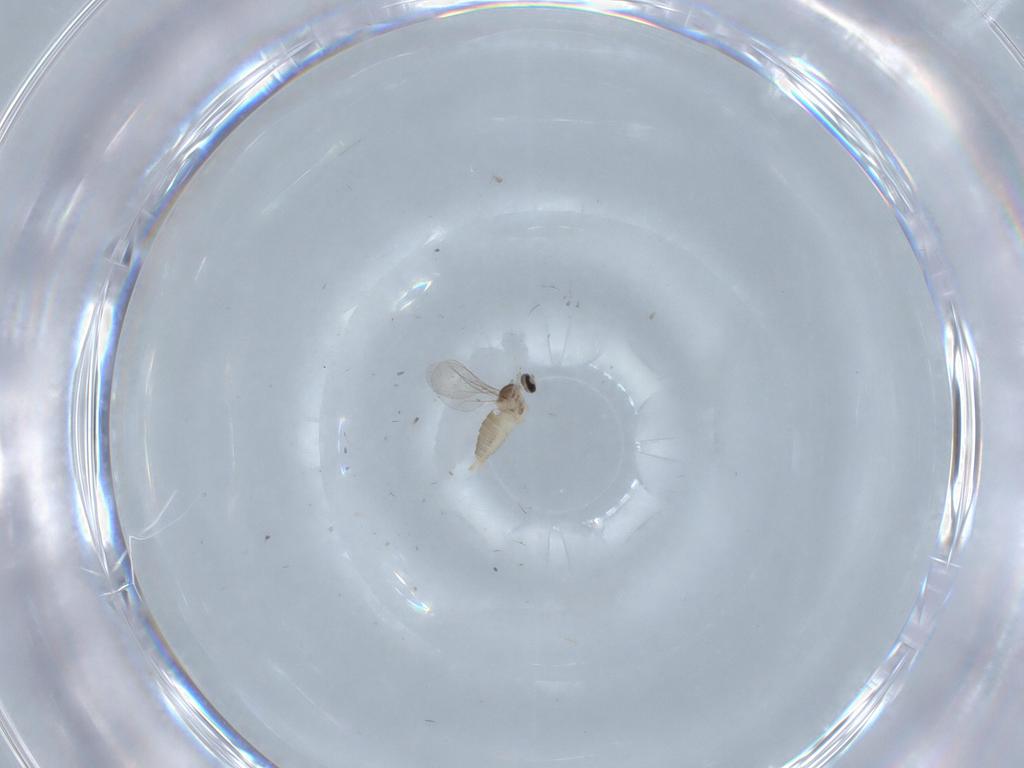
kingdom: Animalia
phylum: Arthropoda
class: Insecta
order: Diptera
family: Cecidomyiidae
